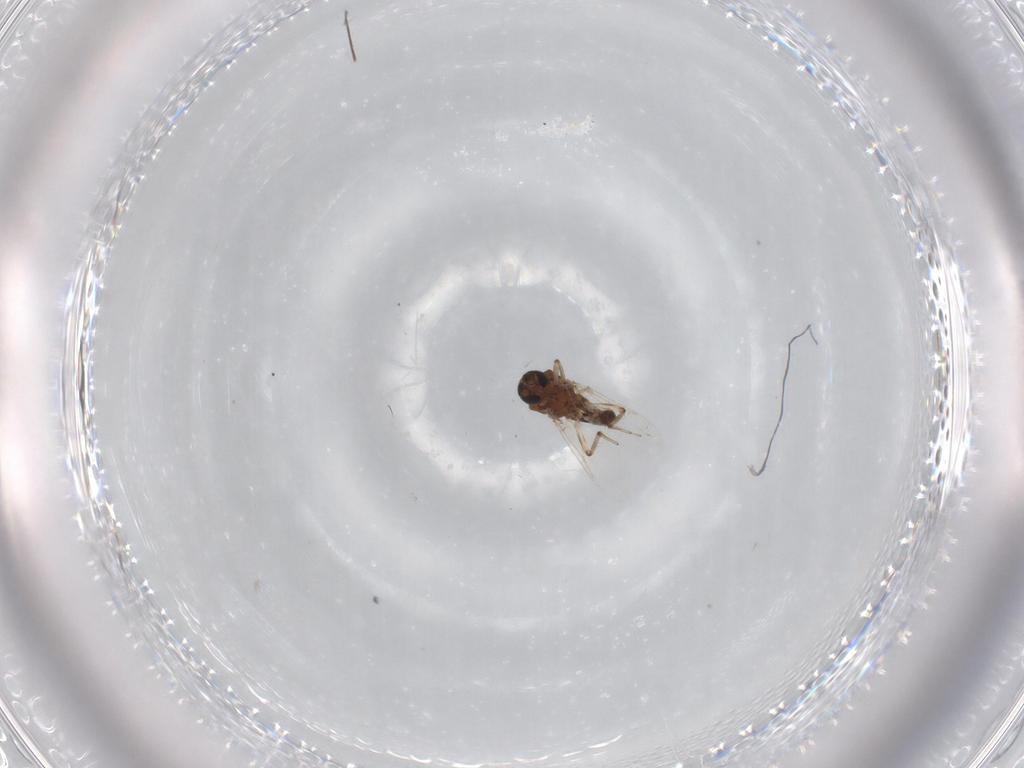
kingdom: Animalia
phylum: Arthropoda
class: Insecta
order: Diptera
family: Ceratopogonidae
